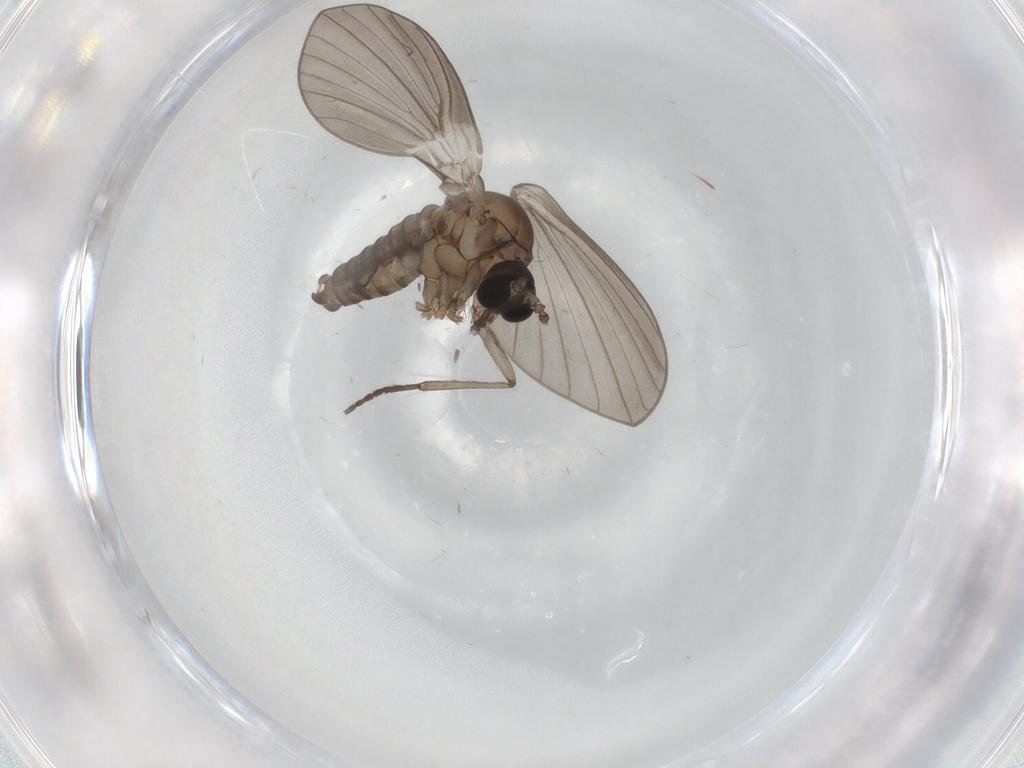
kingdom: Animalia
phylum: Arthropoda
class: Insecta
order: Diptera
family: Psychodidae
